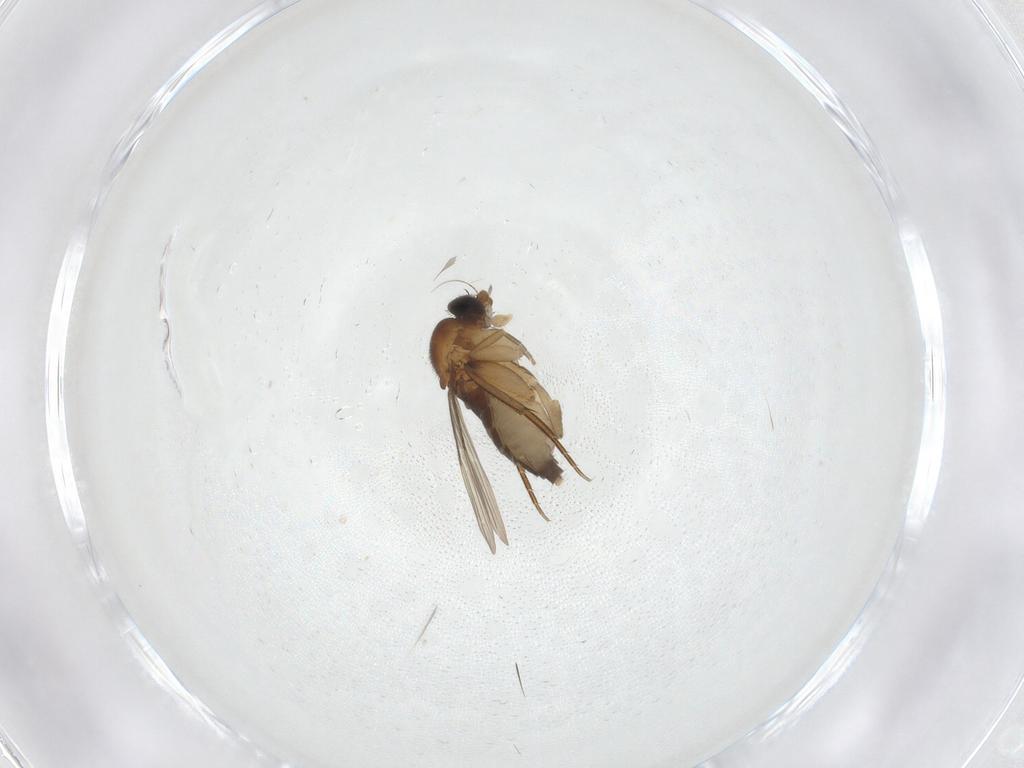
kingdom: Animalia
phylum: Arthropoda
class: Insecta
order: Diptera
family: Phoridae
